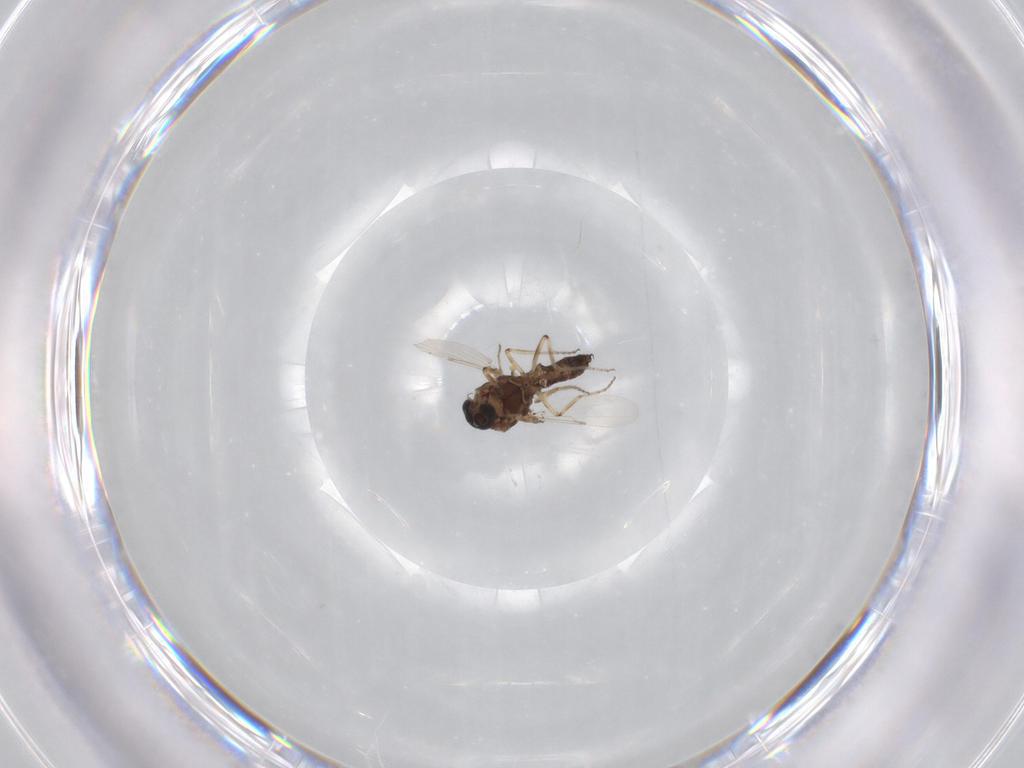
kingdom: Animalia
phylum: Arthropoda
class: Insecta
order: Diptera
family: Ceratopogonidae
